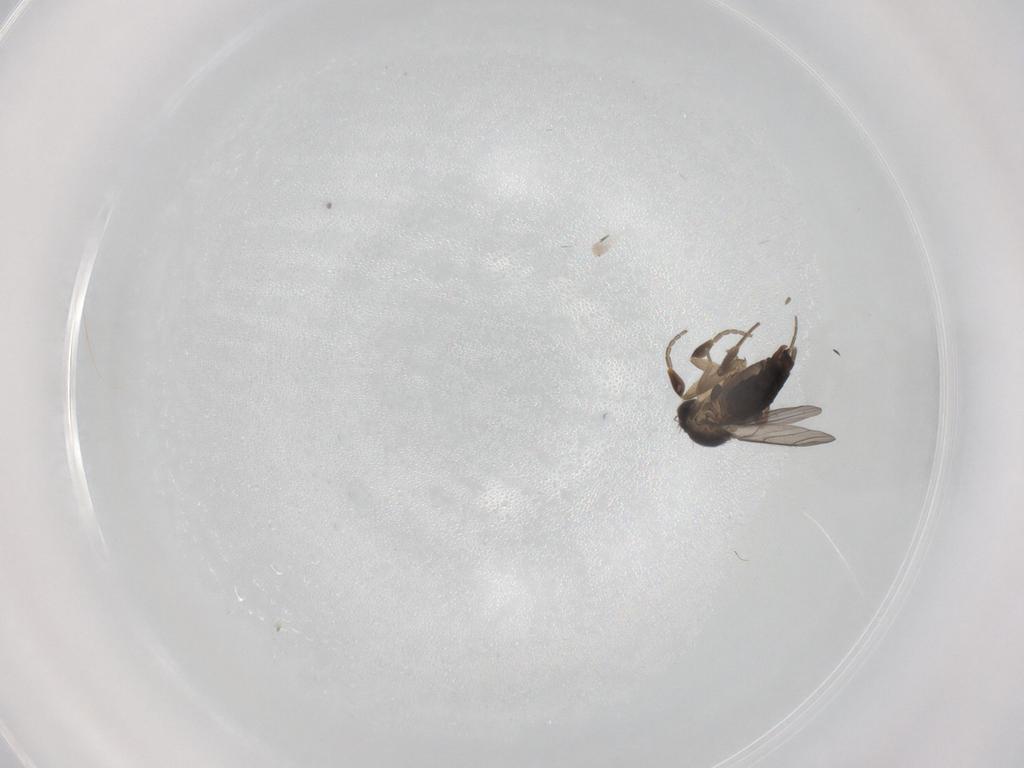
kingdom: Animalia
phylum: Arthropoda
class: Insecta
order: Diptera
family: Phoridae
